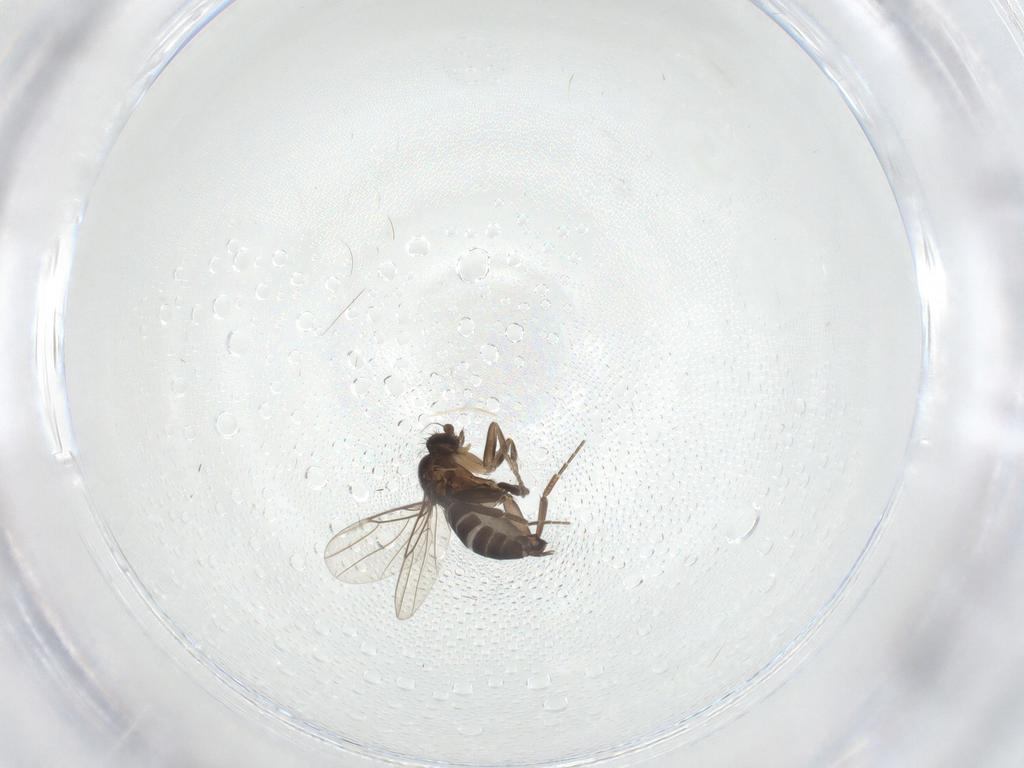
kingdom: Animalia
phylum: Arthropoda
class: Insecta
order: Diptera
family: Phoridae
